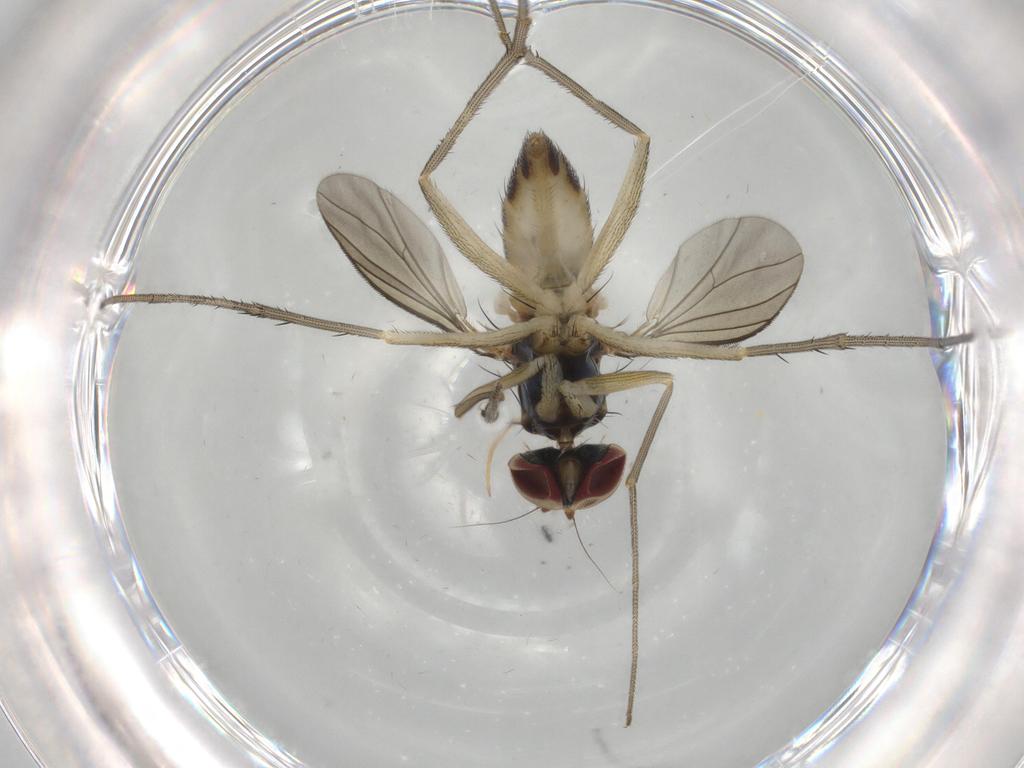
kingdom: Animalia
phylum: Arthropoda
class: Insecta
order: Diptera
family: Dolichopodidae
